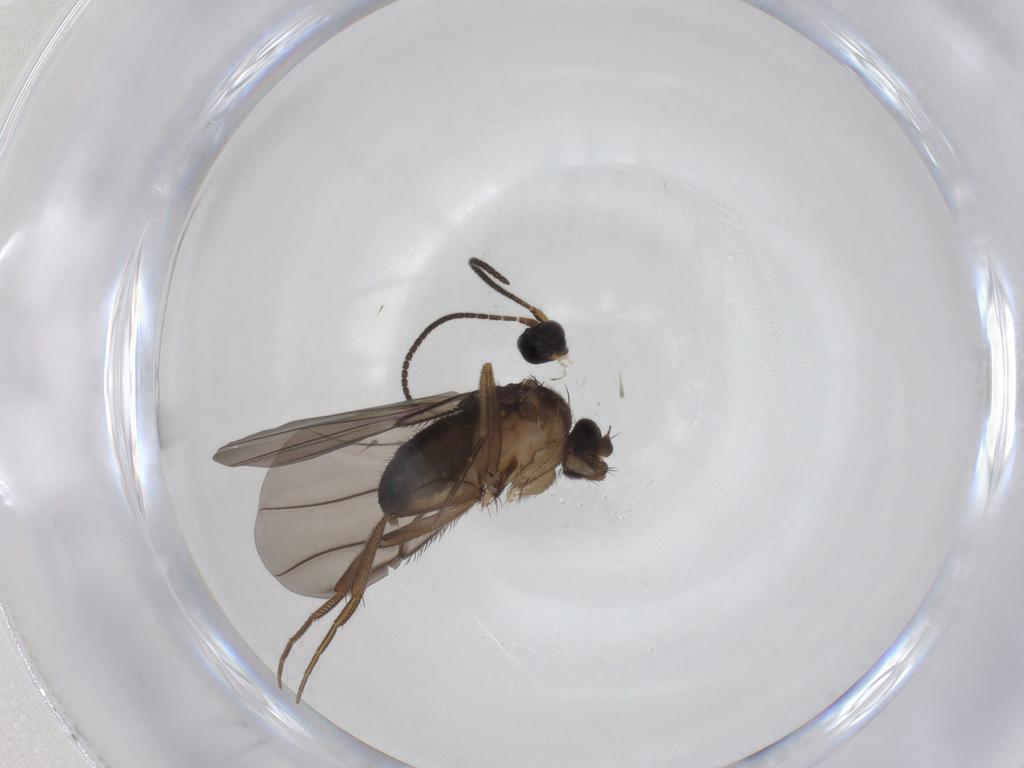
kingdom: Animalia
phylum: Arthropoda
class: Insecta
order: Diptera
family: Phoridae
